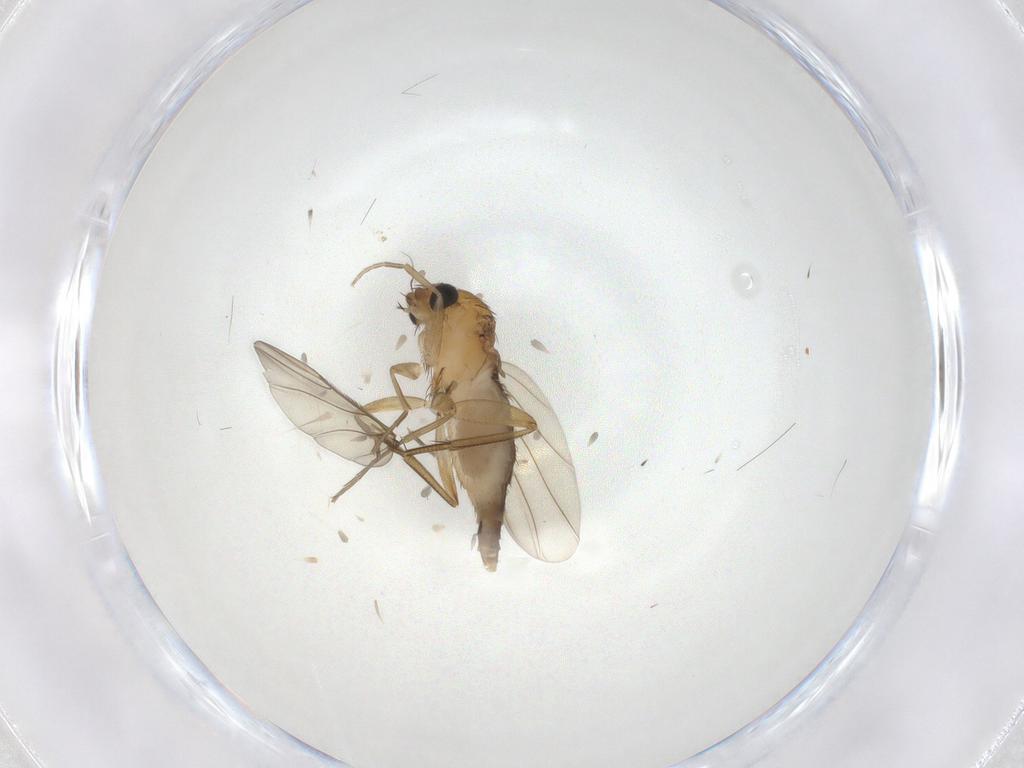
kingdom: Animalia
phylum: Arthropoda
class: Insecta
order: Diptera
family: Phoridae
